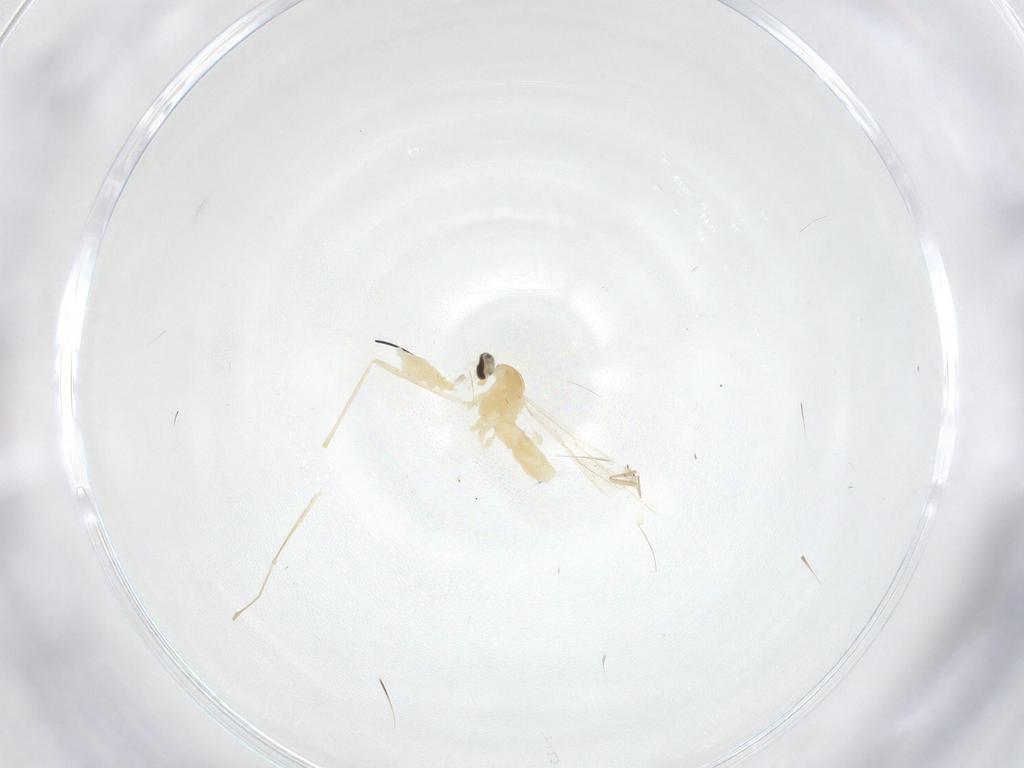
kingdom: Animalia
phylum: Arthropoda
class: Insecta
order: Diptera
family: Cecidomyiidae
